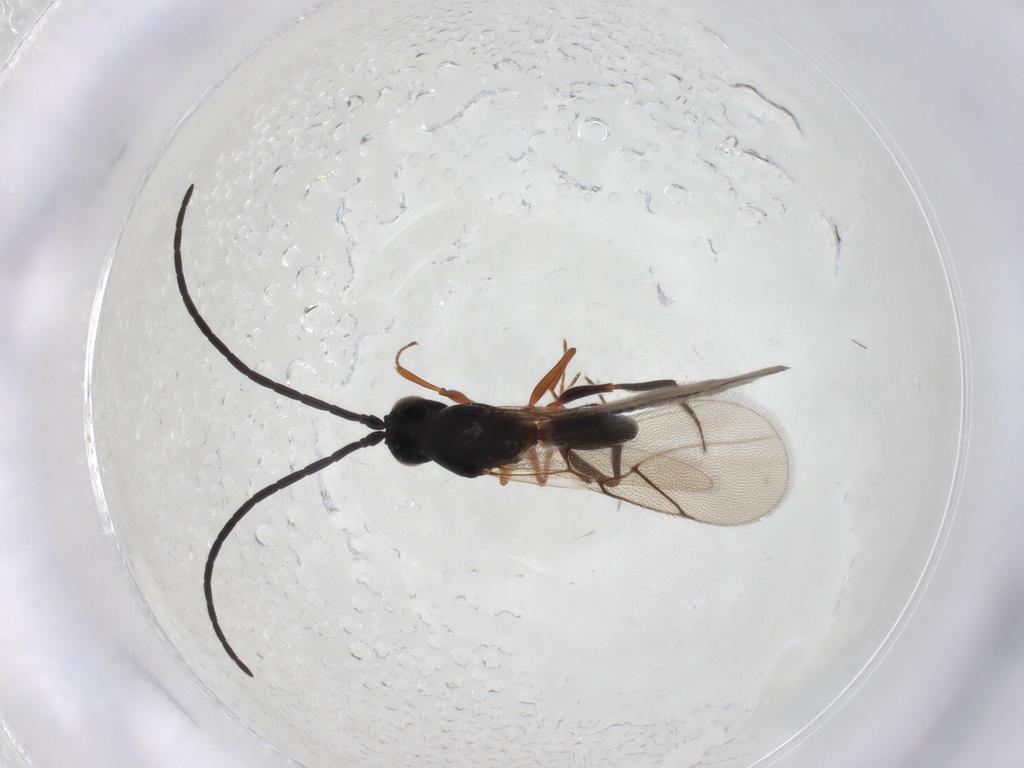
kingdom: Animalia
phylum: Arthropoda
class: Insecta
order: Hymenoptera
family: Figitidae
